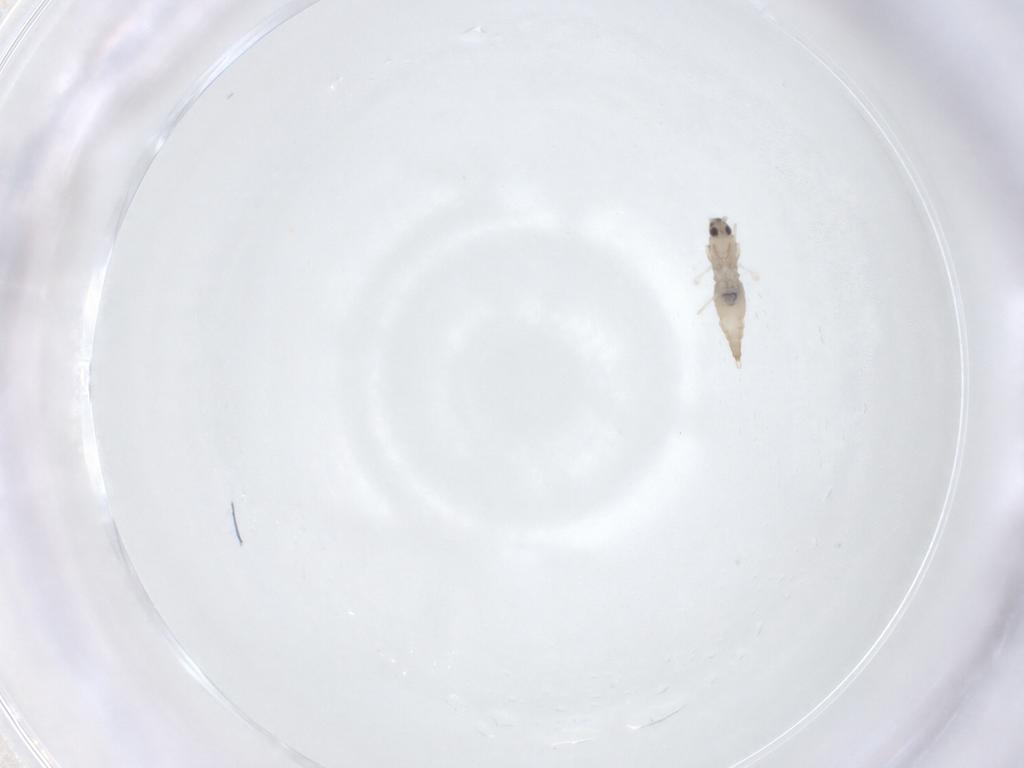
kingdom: Animalia
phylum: Arthropoda
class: Insecta
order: Diptera
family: Cecidomyiidae
